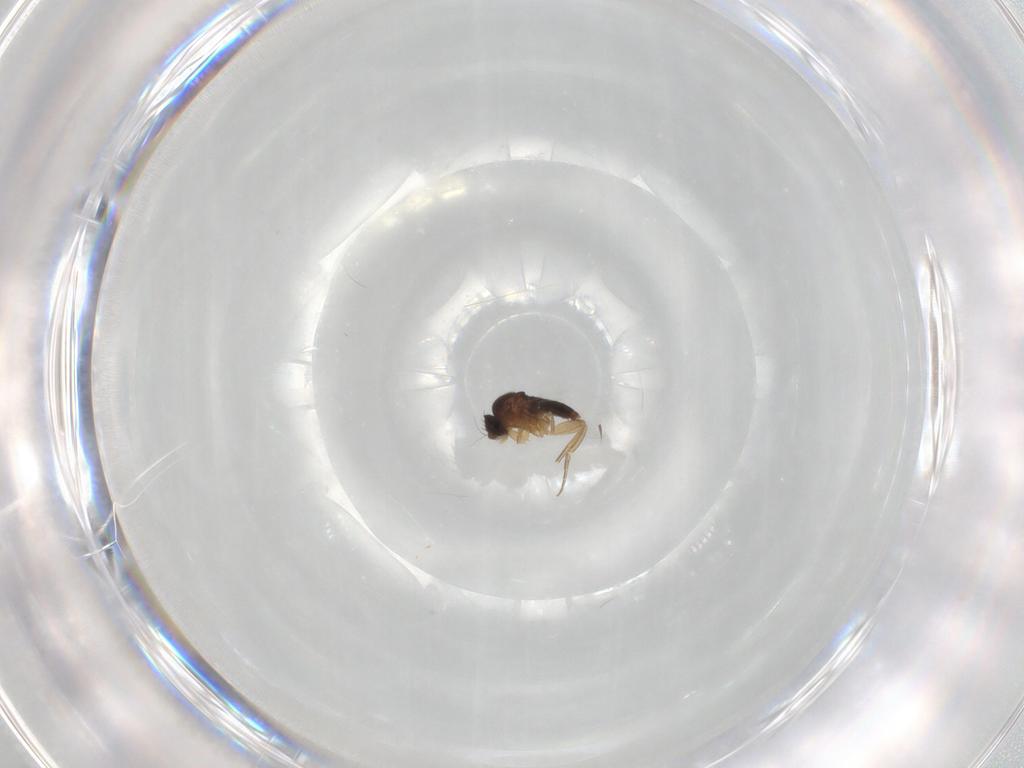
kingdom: Animalia
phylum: Arthropoda
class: Insecta
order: Diptera
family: Phoridae
